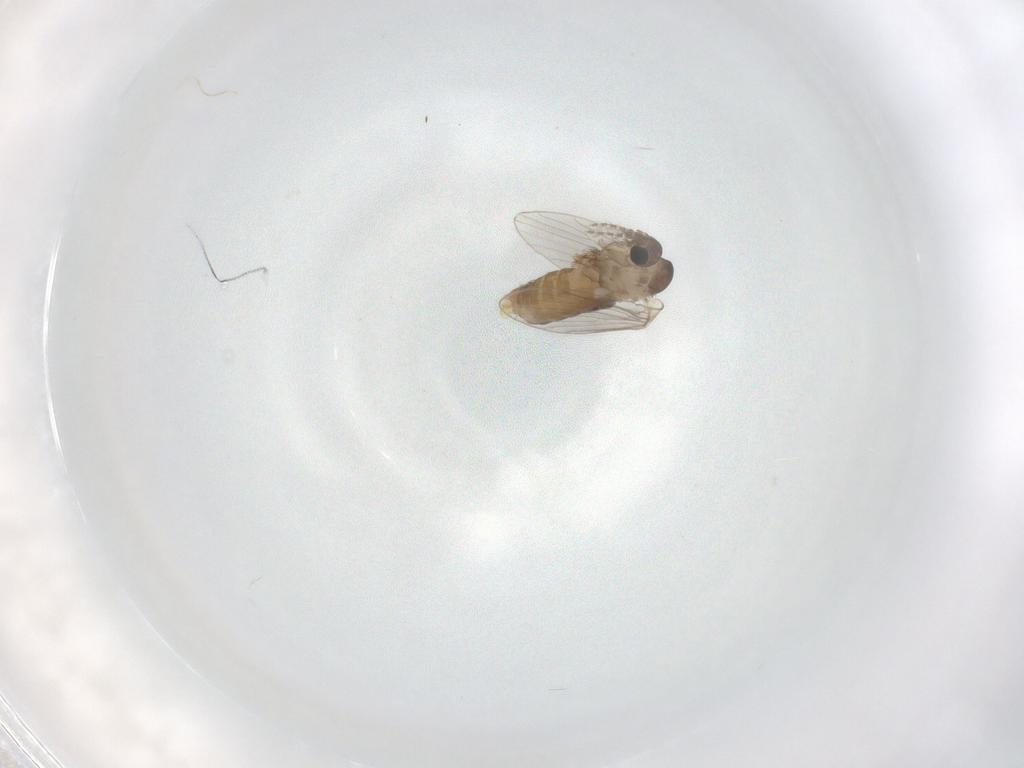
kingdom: Animalia
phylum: Arthropoda
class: Insecta
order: Diptera
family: Psychodidae
